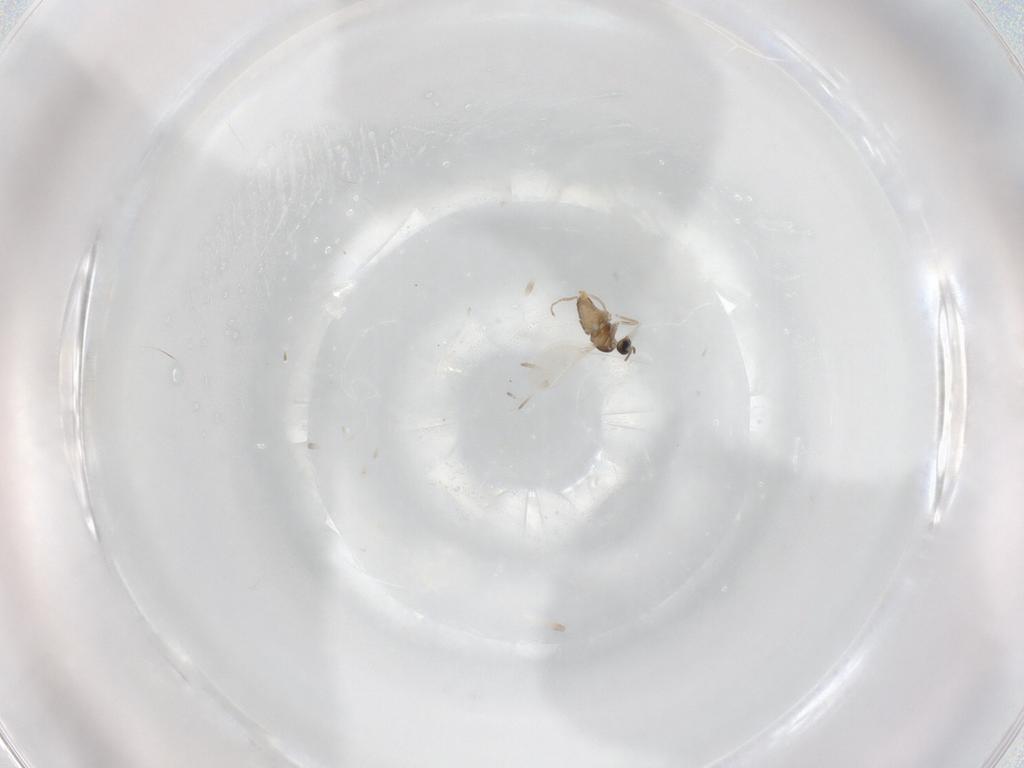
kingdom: Animalia
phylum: Arthropoda
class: Insecta
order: Diptera
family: Cecidomyiidae
